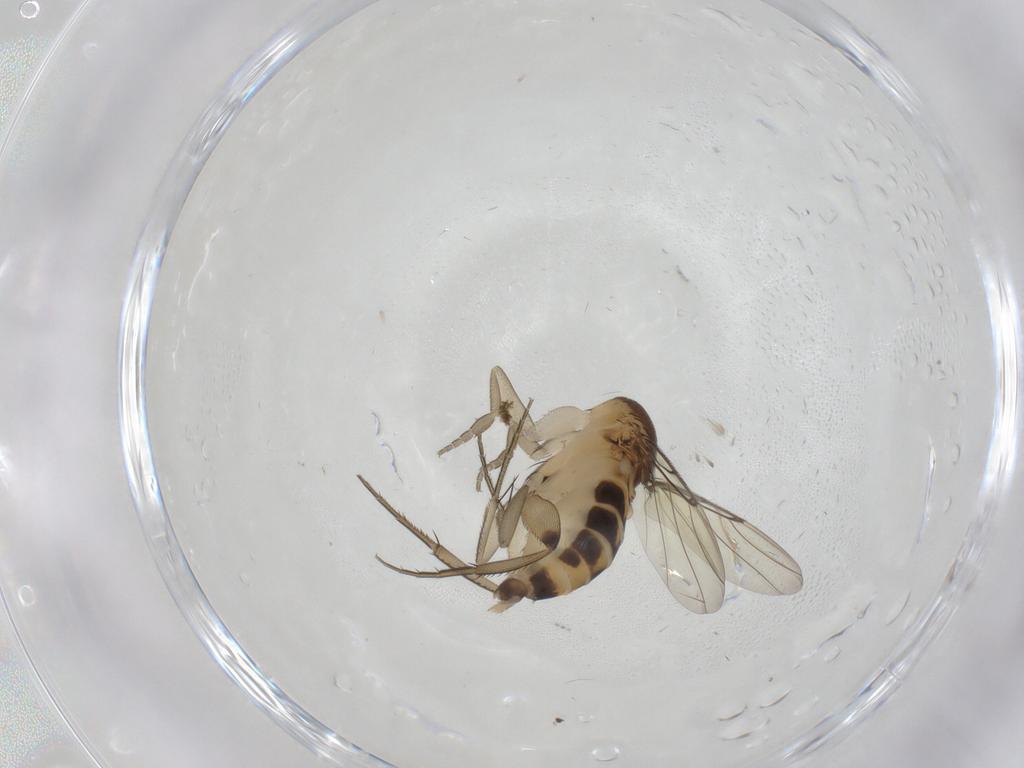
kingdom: Animalia
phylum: Arthropoda
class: Insecta
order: Diptera
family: Phoridae
